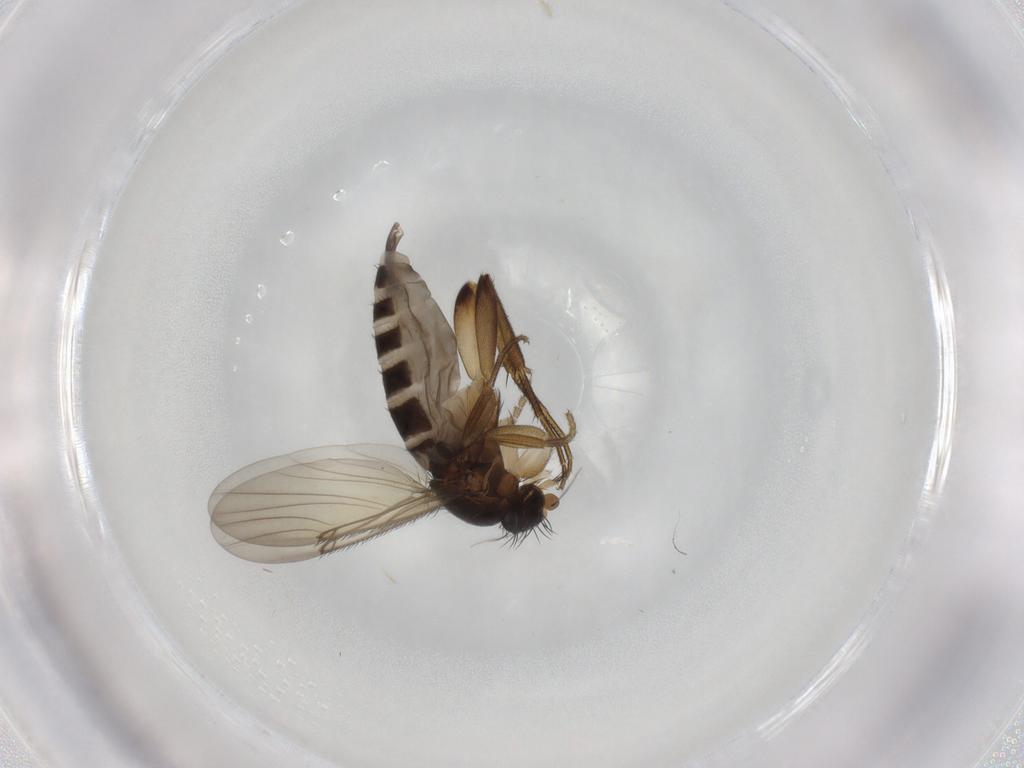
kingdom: Animalia
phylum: Arthropoda
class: Insecta
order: Diptera
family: Phoridae
